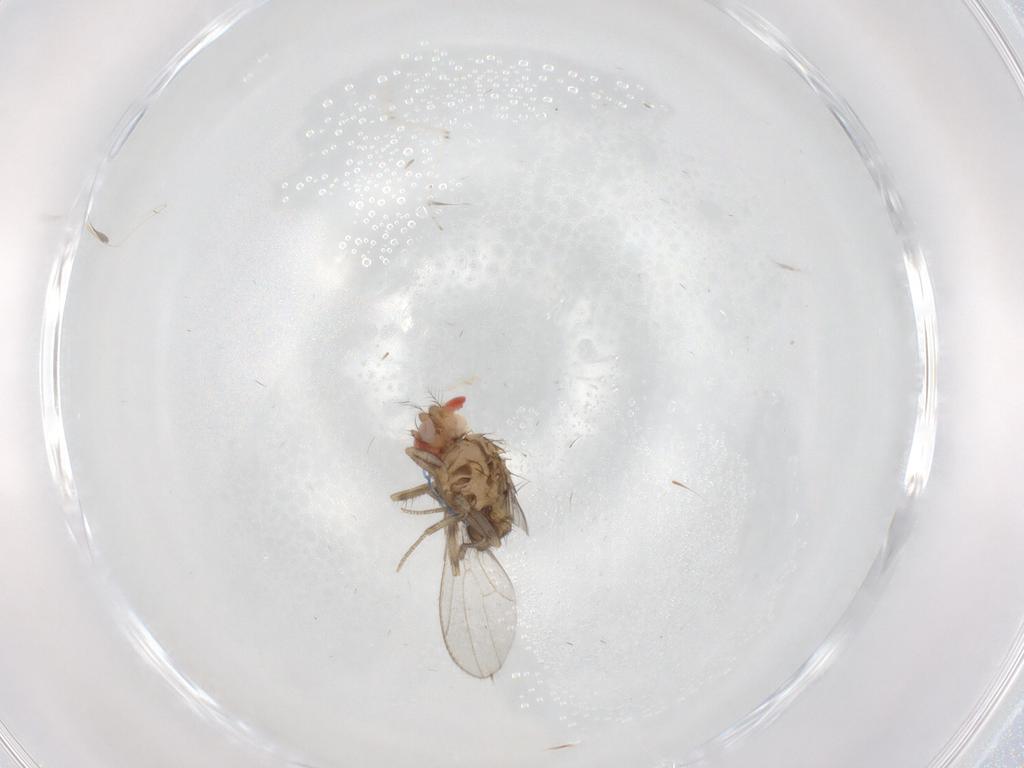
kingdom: Animalia
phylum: Arthropoda
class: Insecta
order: Diptera
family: Drosophilidae
